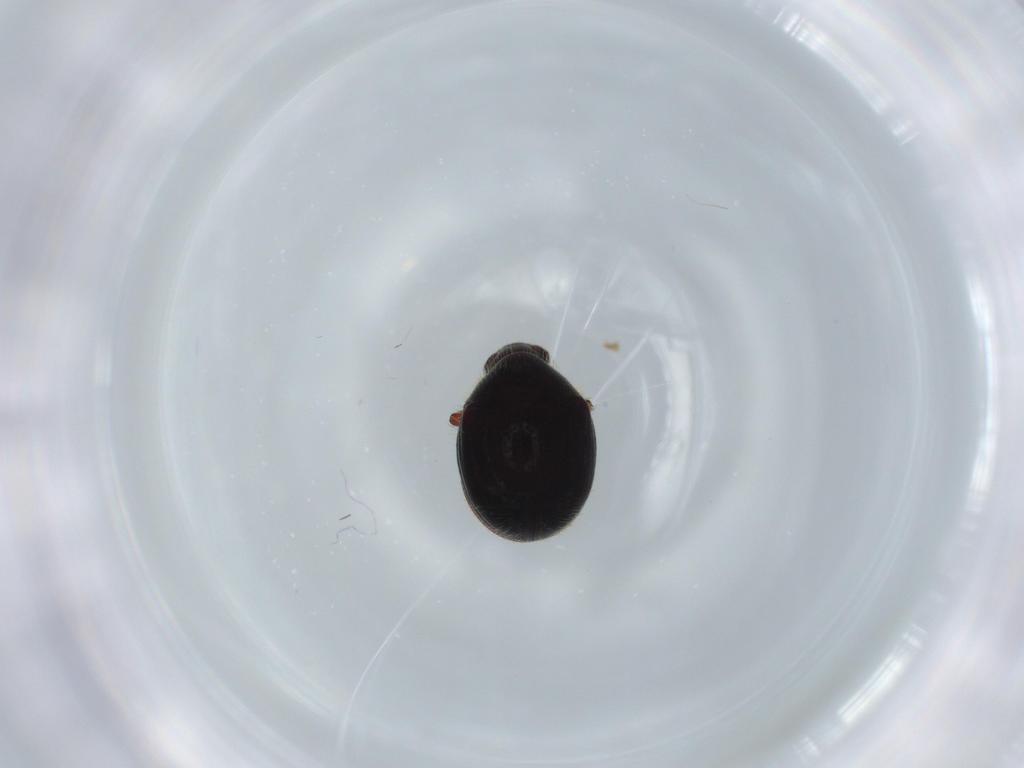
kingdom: Animalia
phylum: Arthropoda
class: Insecta
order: Coleoptera
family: Ptinidae
